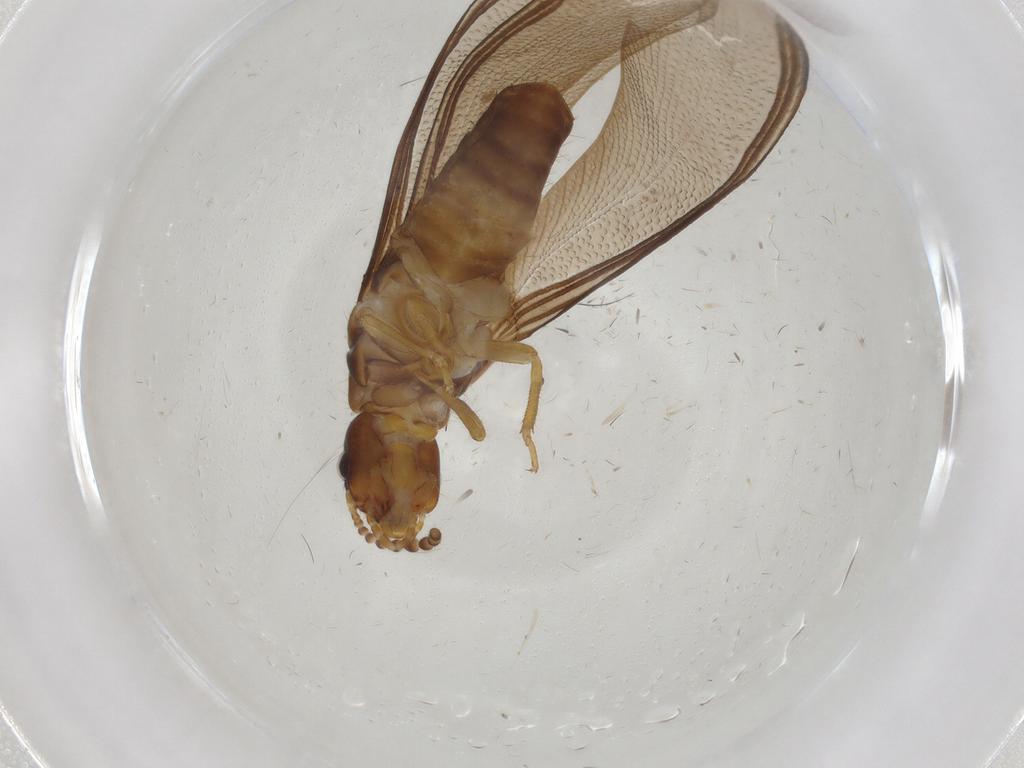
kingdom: Animalia
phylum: Arthropoda
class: Insecta
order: Blattodea
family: Kalotermitidae
